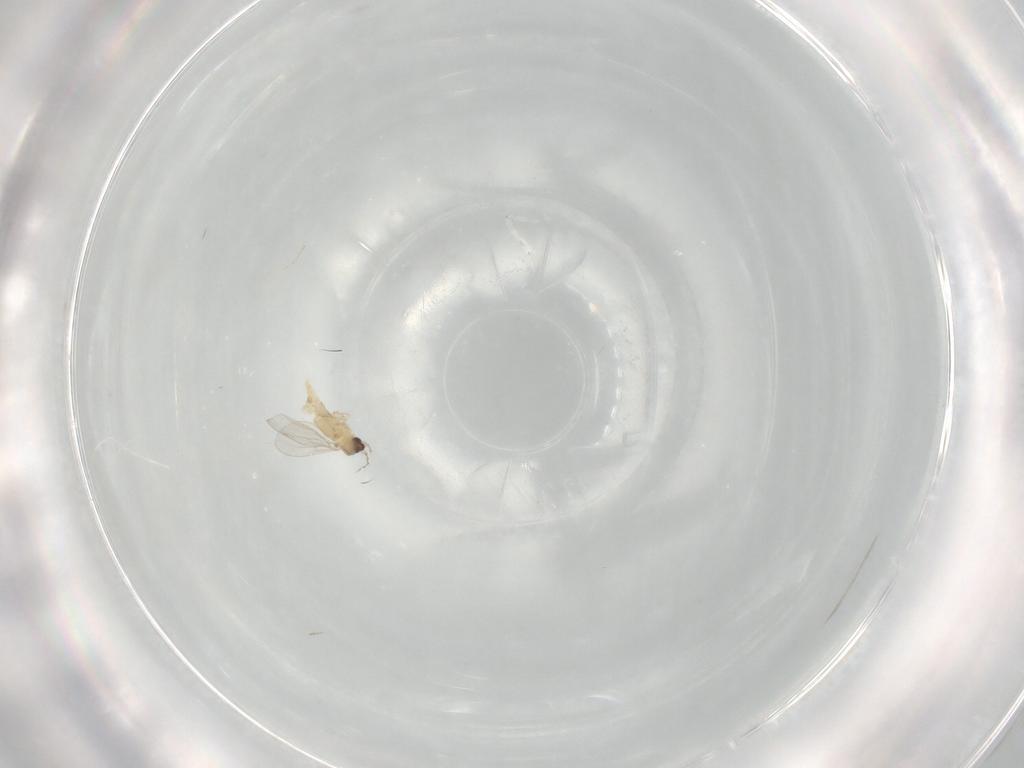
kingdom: Animalia
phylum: Arthropoda
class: Insecta
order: Diptera
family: Cecidomyiidae
